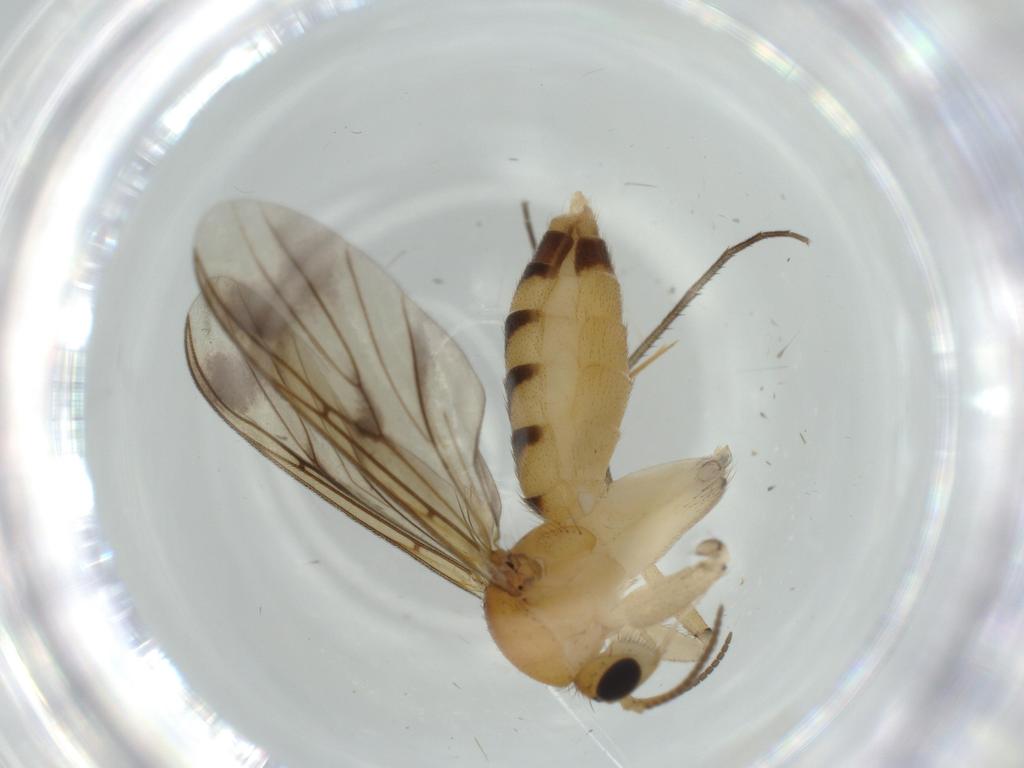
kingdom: Animalia
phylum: Arthropoda
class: Insecta
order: Diptera
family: Mycetophilidae
